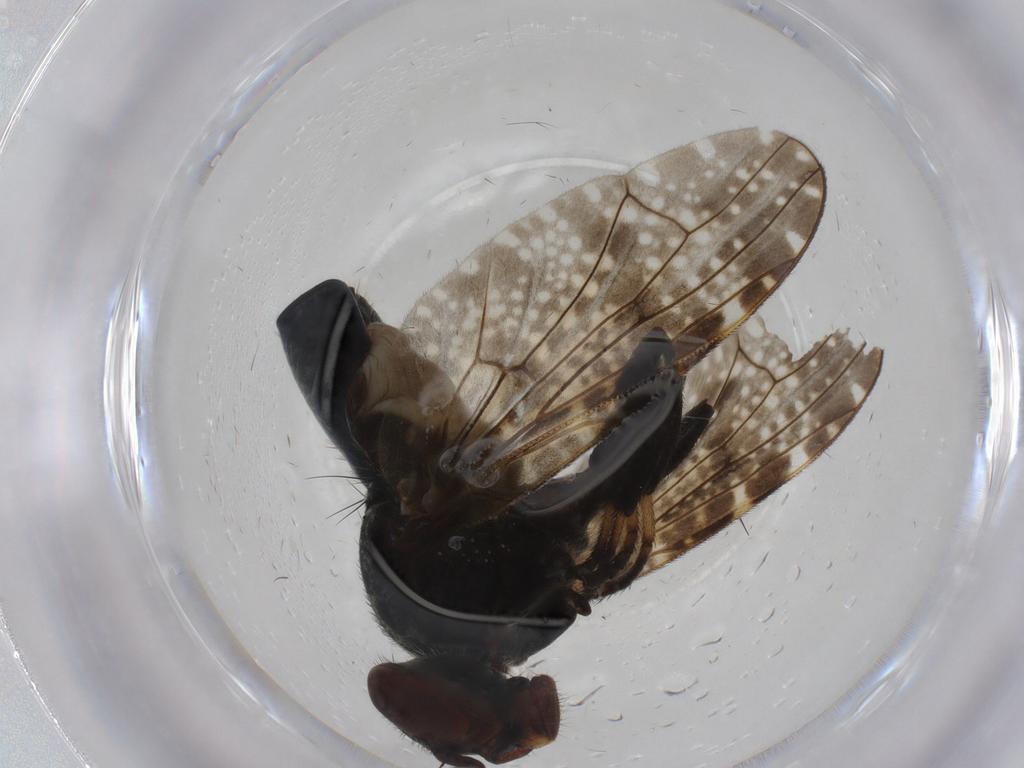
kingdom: Animalia
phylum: Arthropoda
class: Insecta
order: Diptera
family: Platystomatidae
